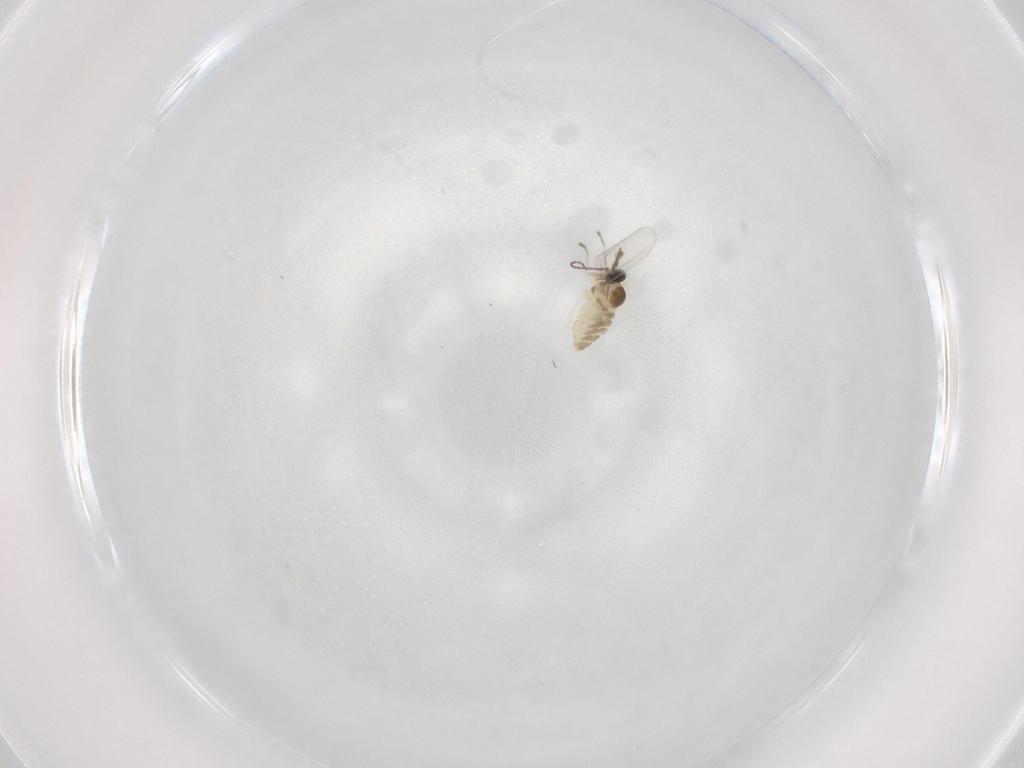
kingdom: Animalia
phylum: Arthropoda
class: Insecta
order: Diptera
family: Cecidomyiidae
